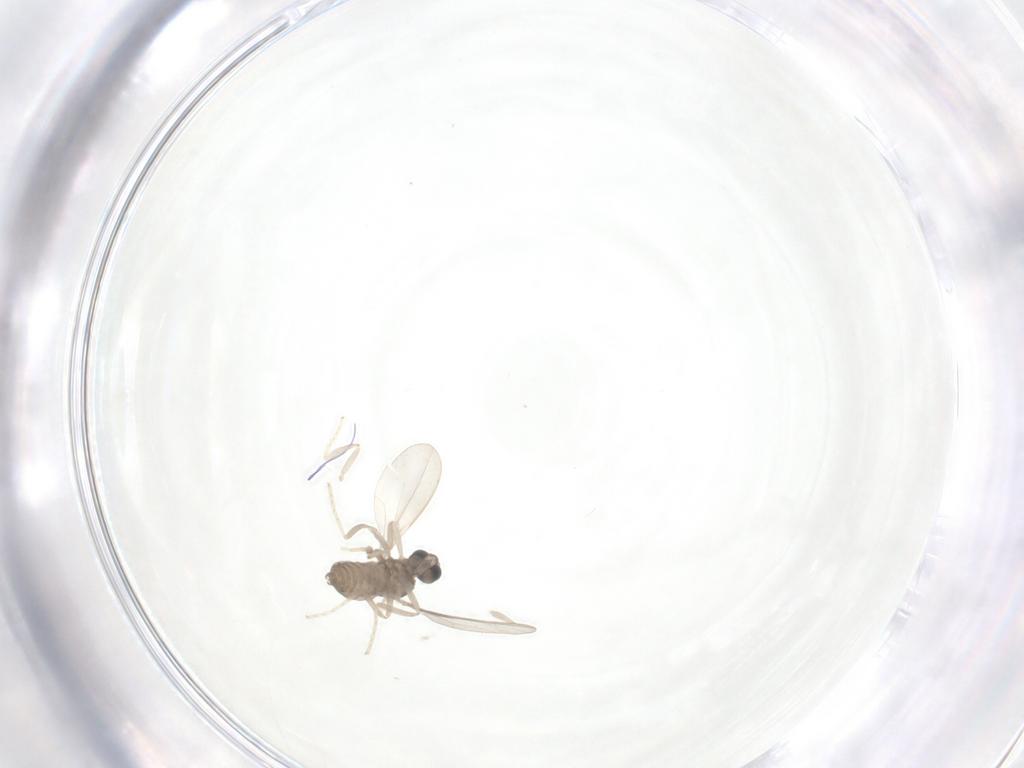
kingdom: Animalia
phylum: Arthropoda
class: Insecta
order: Diptera
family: Cecidomyiidae
